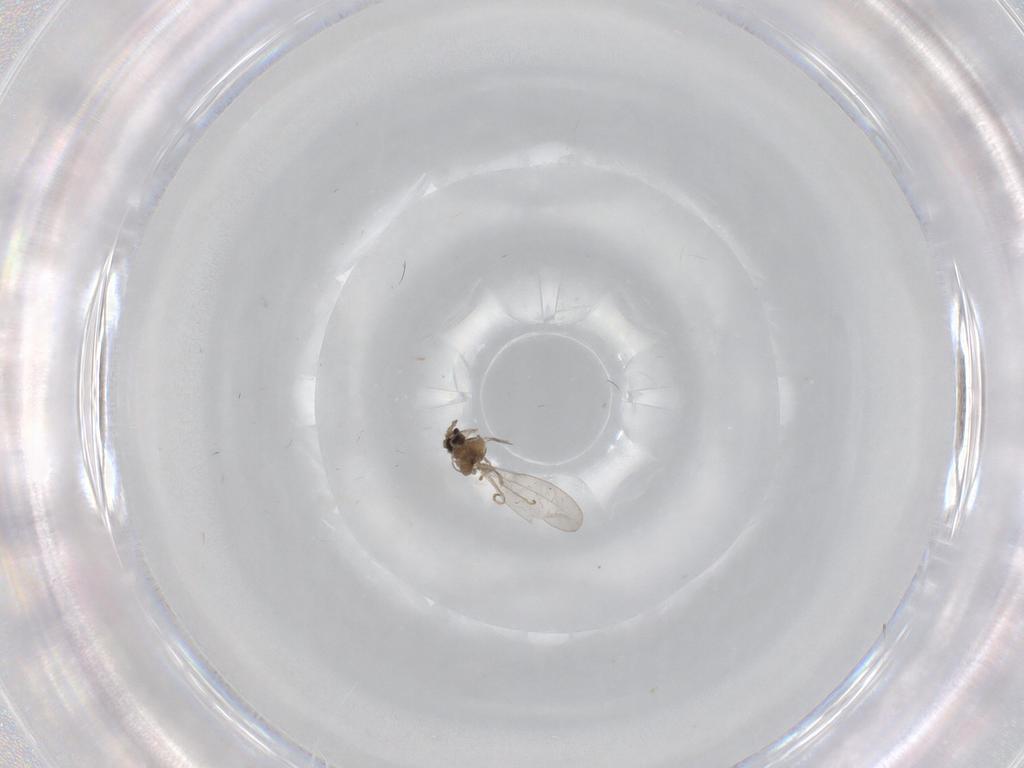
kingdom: Animalia
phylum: Arthropoda
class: Insecta
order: Diptera
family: Cecidomyiidae
